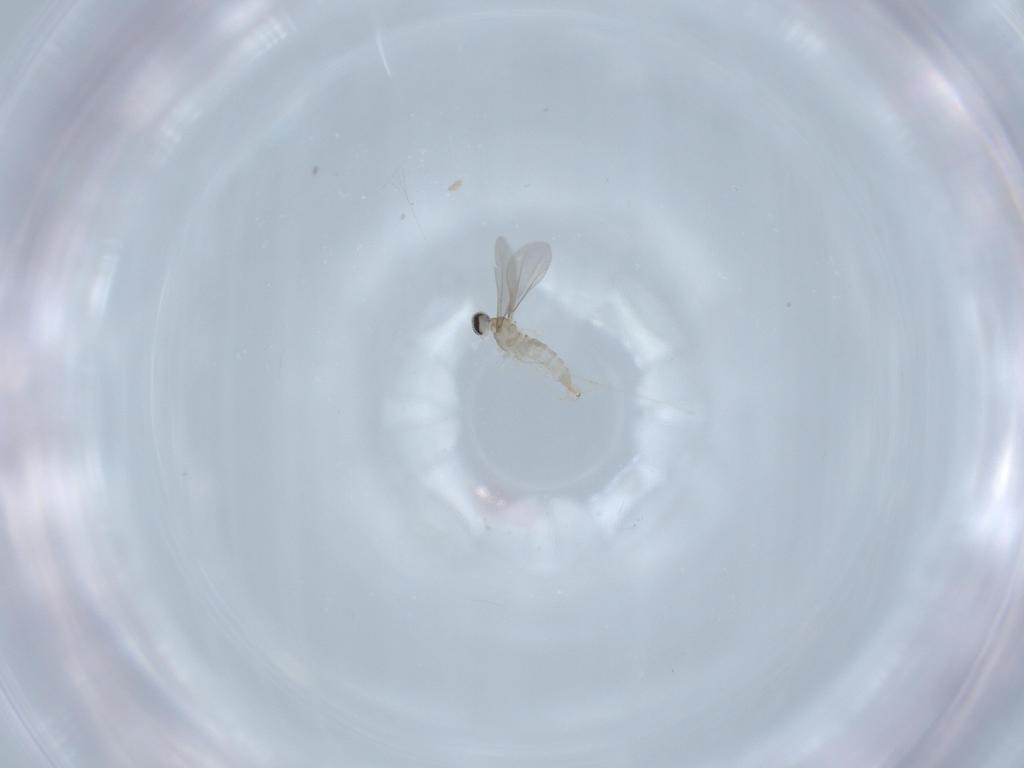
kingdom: Animalia
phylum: Arthropoda
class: Insecta
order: Diptera
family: Cecidomyiidae
